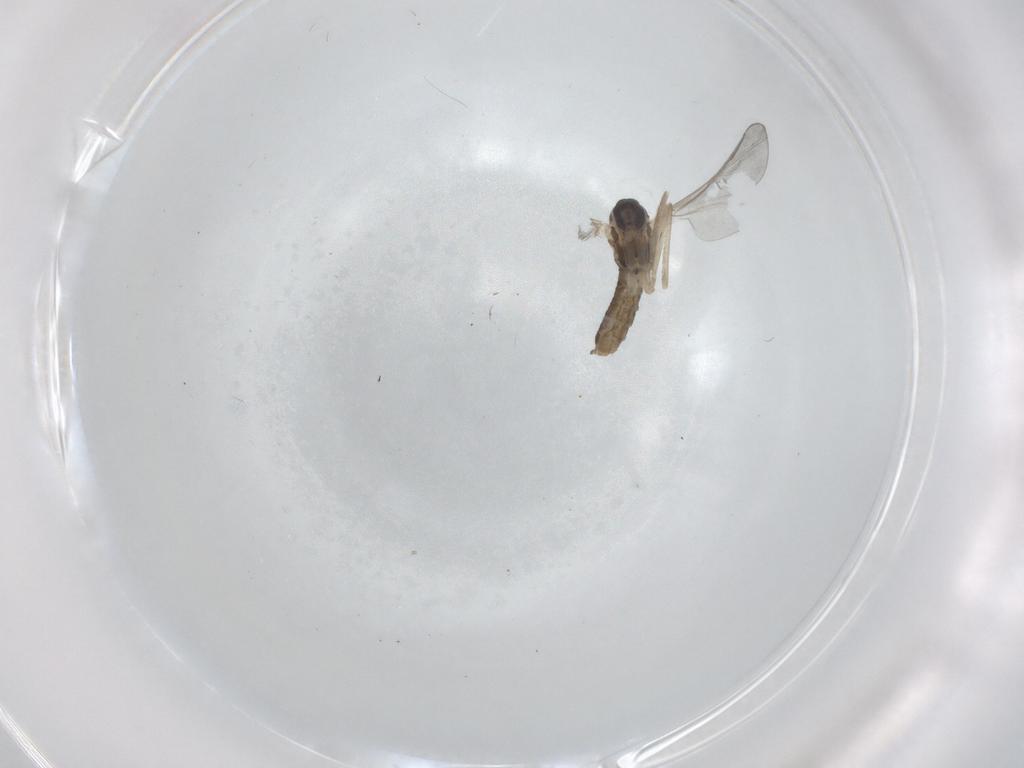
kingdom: Animalia
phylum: Arthropoda
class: Insecta
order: Diptera
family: Cecidomyiidae
